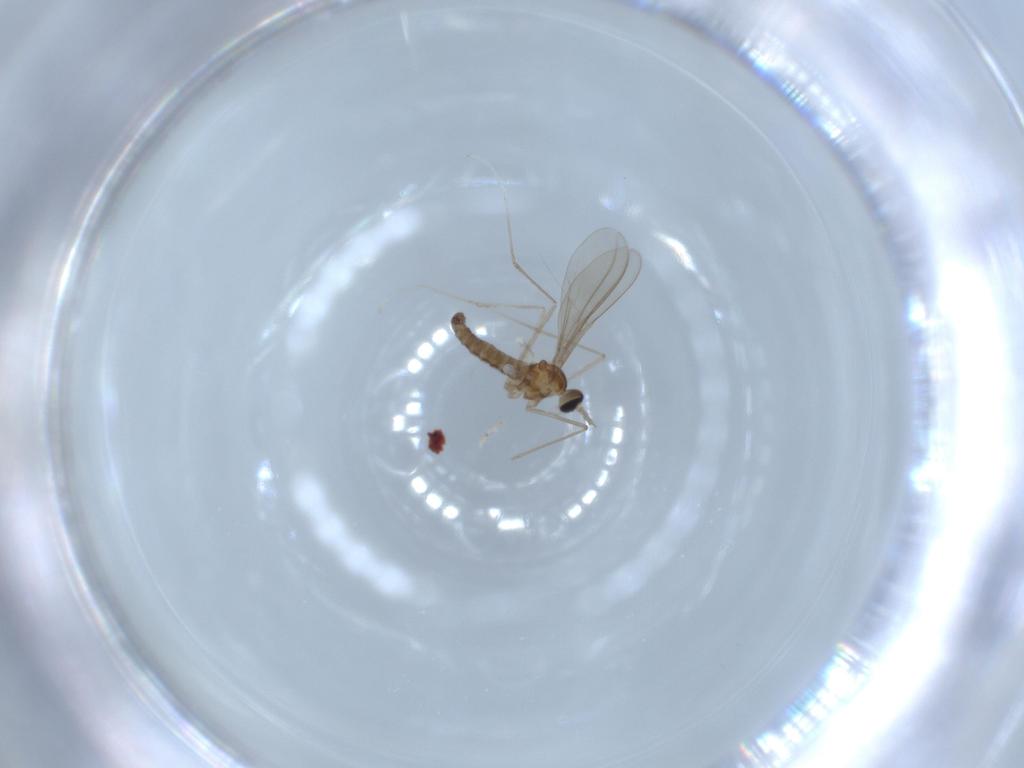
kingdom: Animalia
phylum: Arthropoda
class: Insecta
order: Diptera
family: Cecidomyiidae
